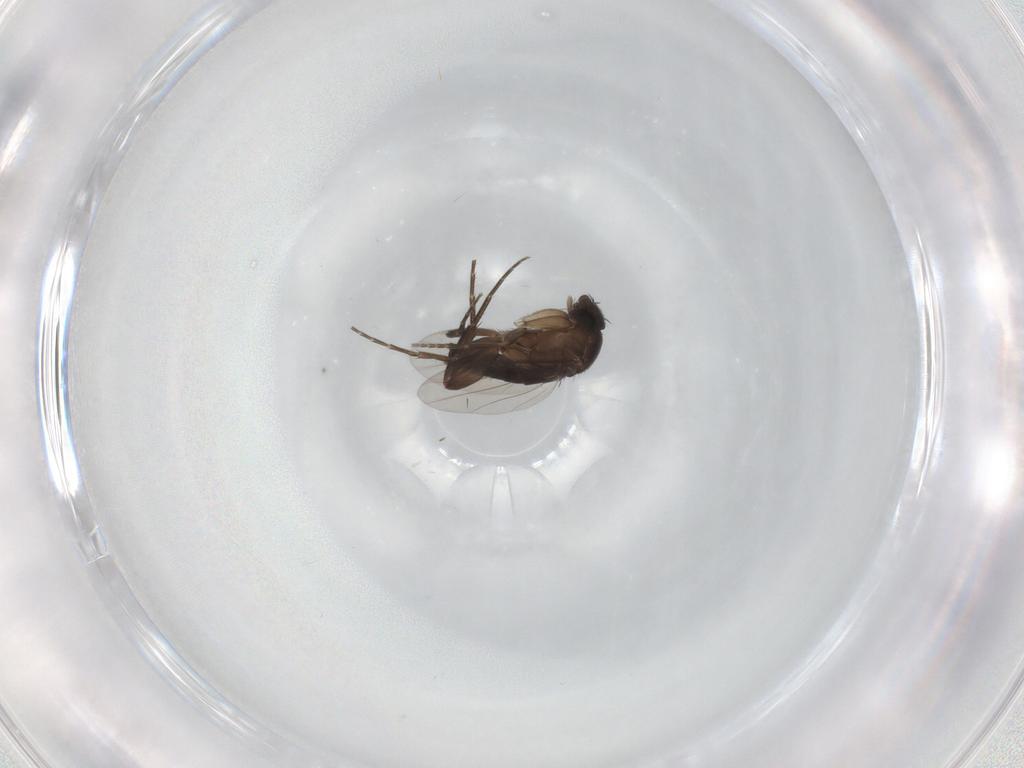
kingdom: Animalia
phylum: Arthropoda
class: Insecta
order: Diptera
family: Phoridae
